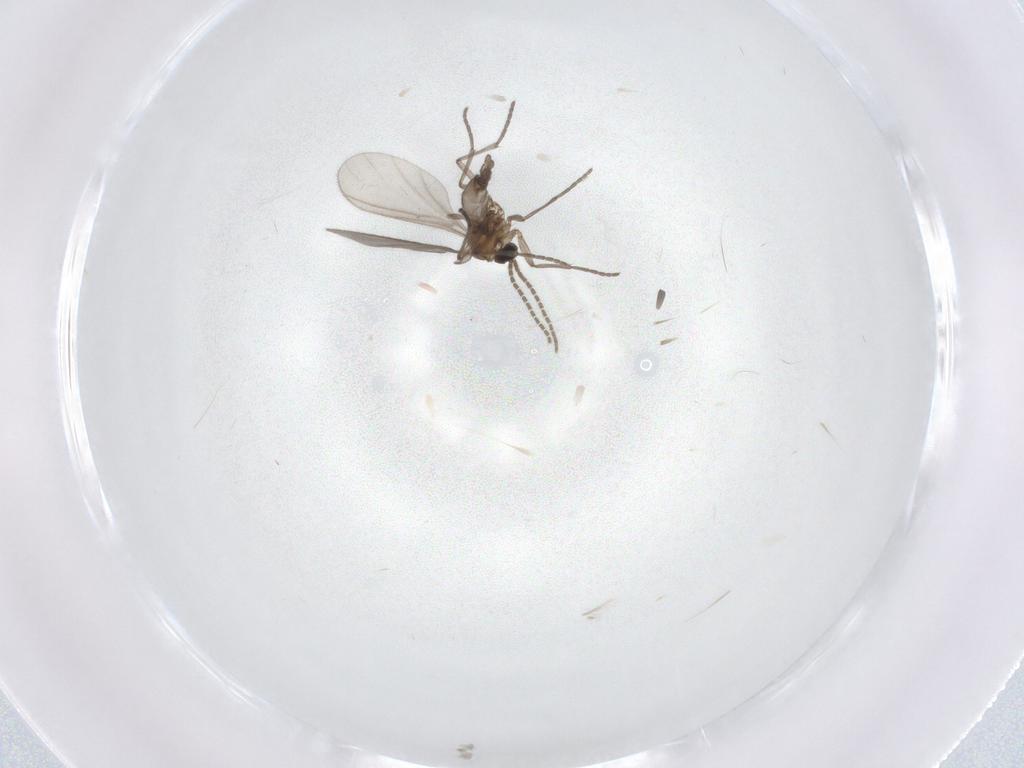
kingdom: Animalia
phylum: Arthropoda
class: Insecta
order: Diptera
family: Sciaridae
